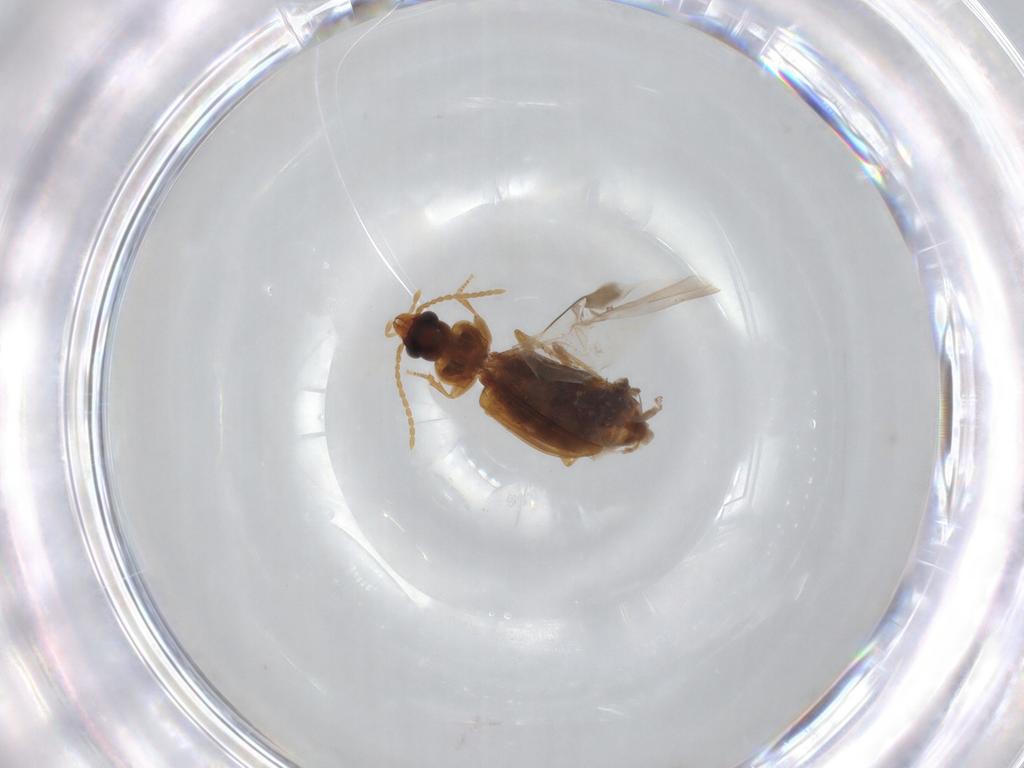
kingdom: Animalia
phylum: Arthropoda
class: Insecta
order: Coleoptera
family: Carabidae
